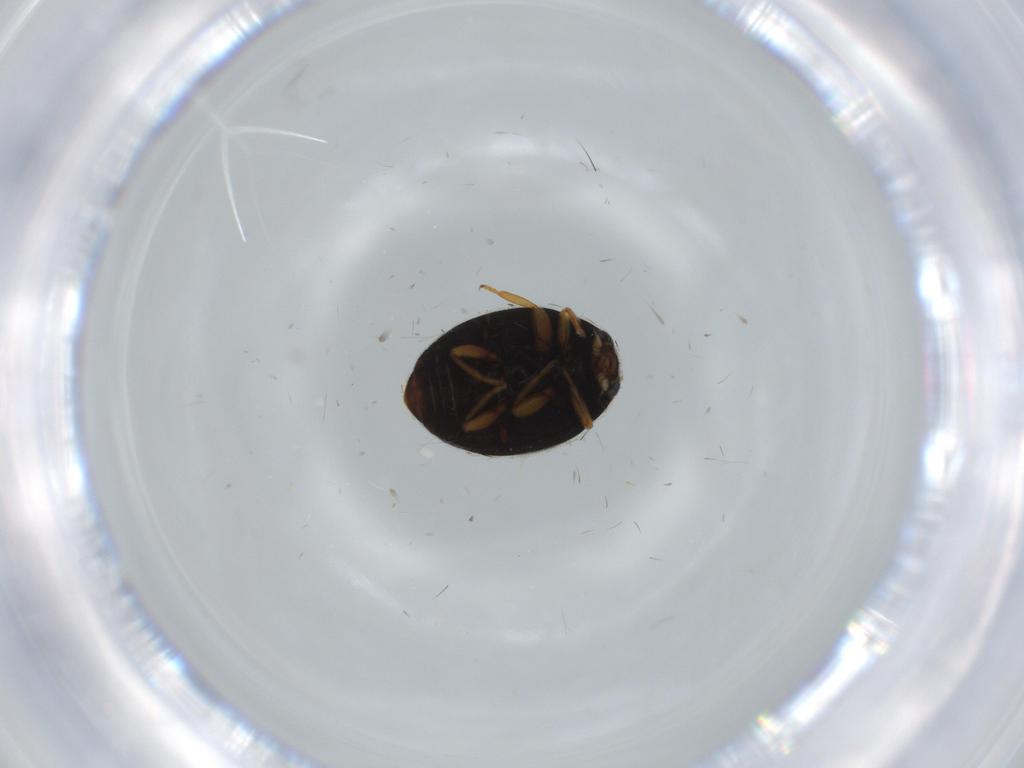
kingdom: Animalia
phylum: Arthropoda
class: Insecta
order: Coleoptera
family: Coccinellidae
